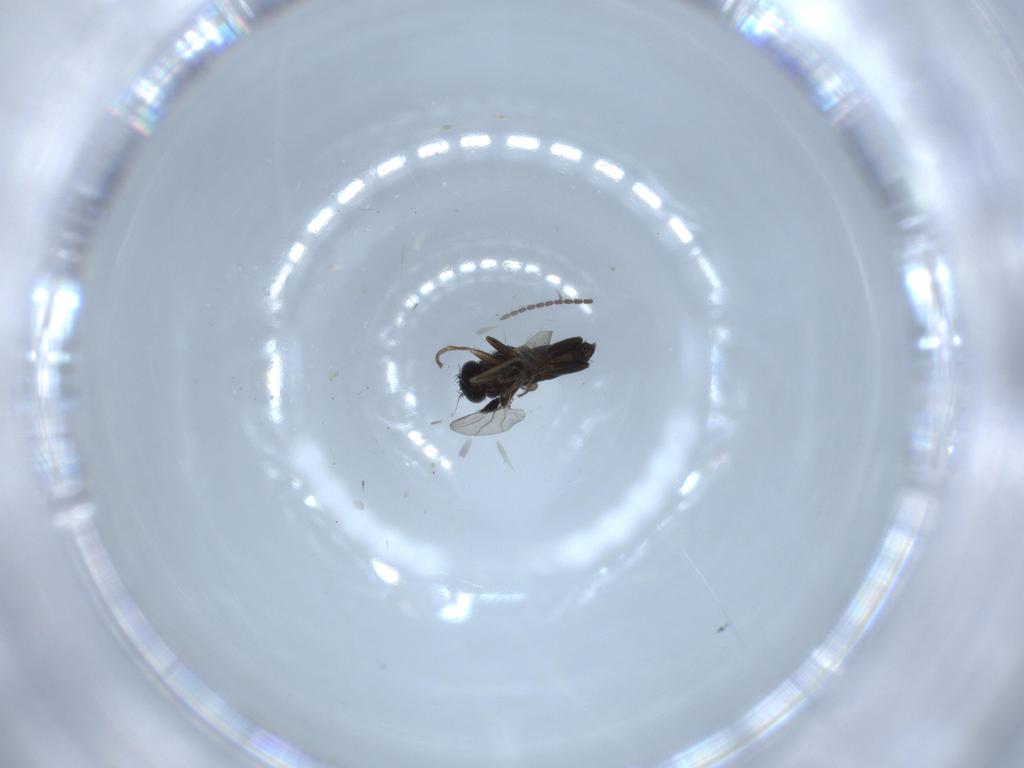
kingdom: Animalia
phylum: Arthropoda
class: Insecta
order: Diptera
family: Phoridae
